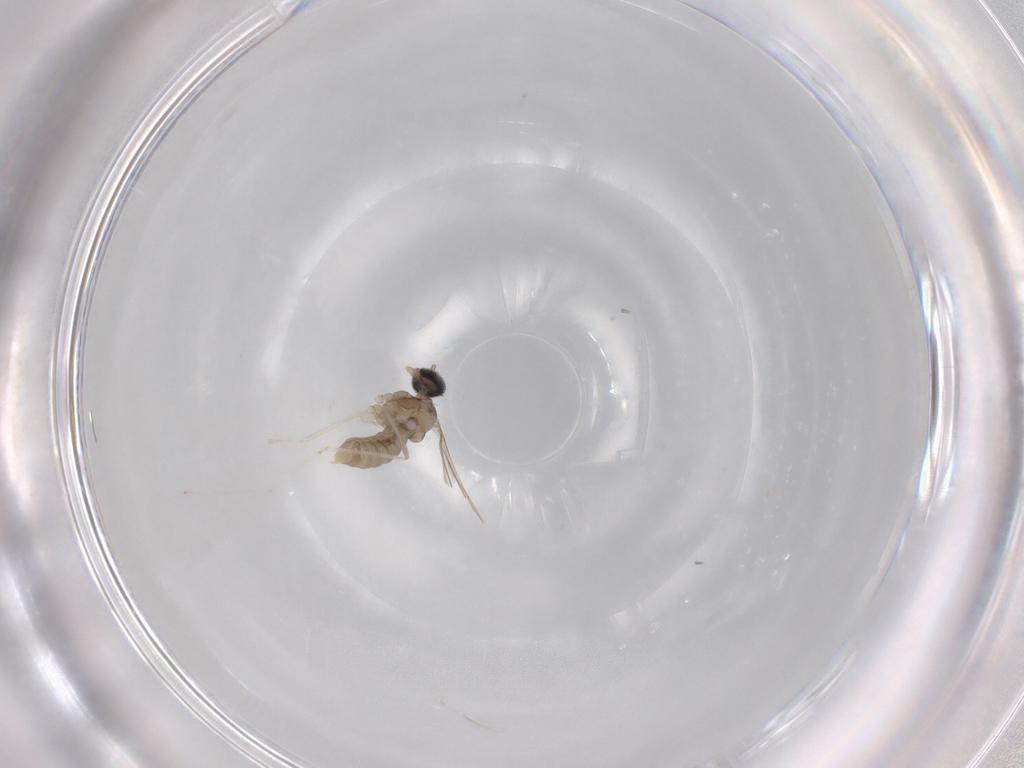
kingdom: Animalia
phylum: Arthropoda
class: Insecta
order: Diptera
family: Cecidomyiidae
